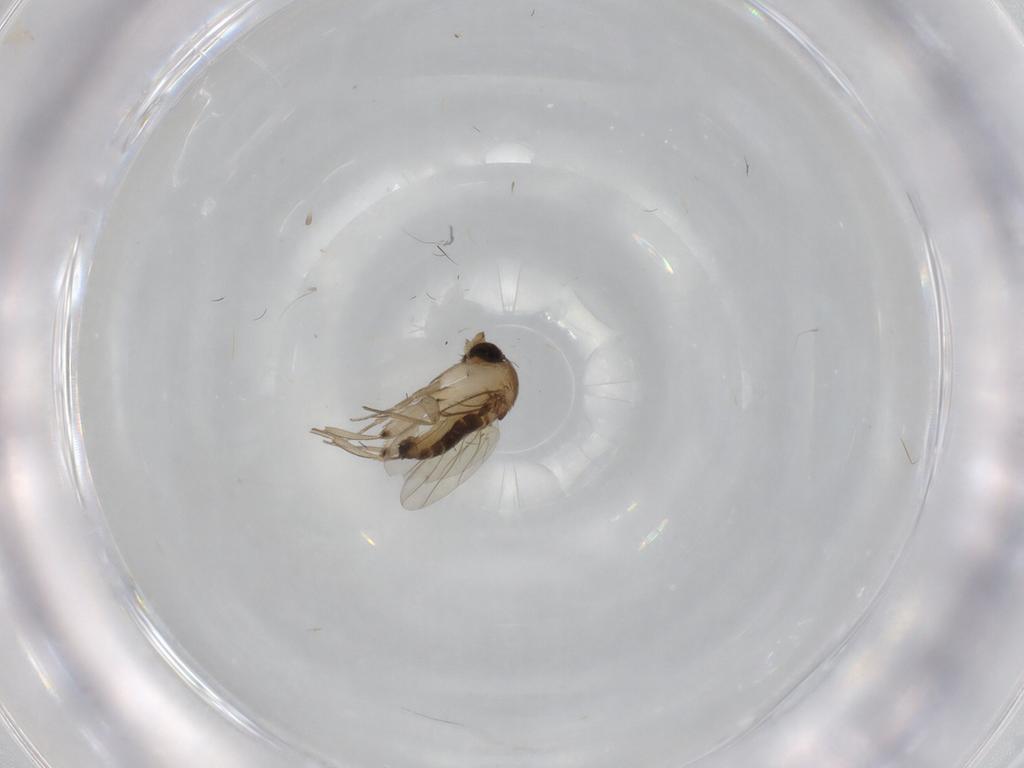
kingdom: Animalia
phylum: Arthropoda
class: Insecta
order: Diptera
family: Phoridae
